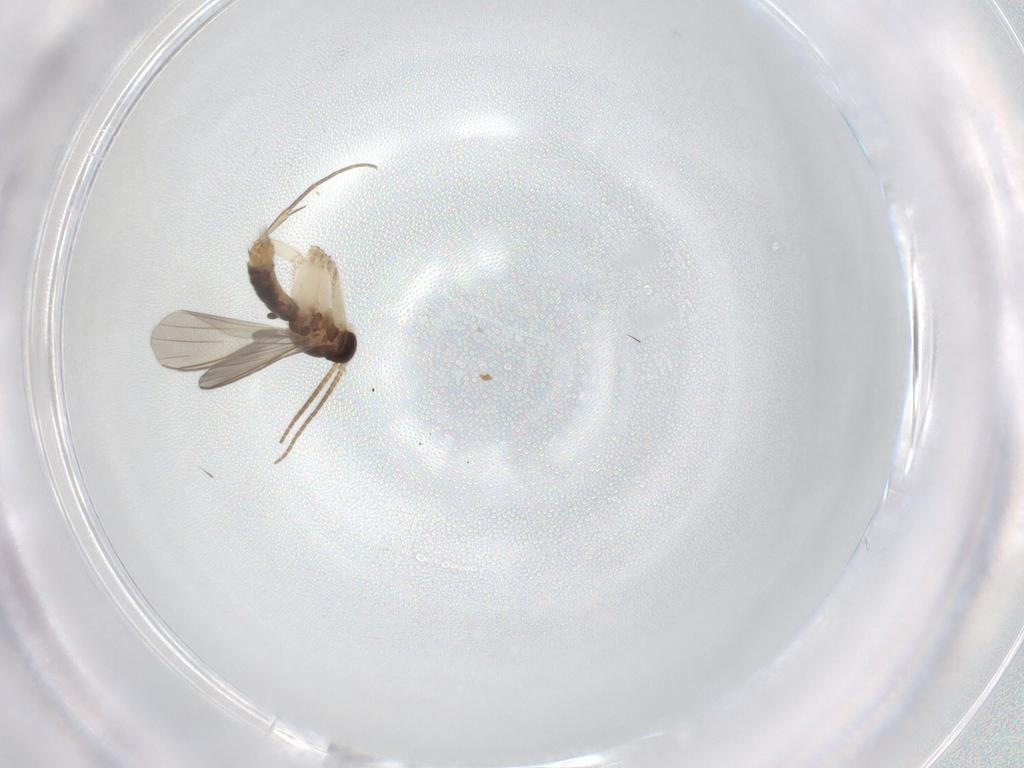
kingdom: Animalia
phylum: Arthropoda
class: Insecta
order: Diptera
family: Mycetophilidae
